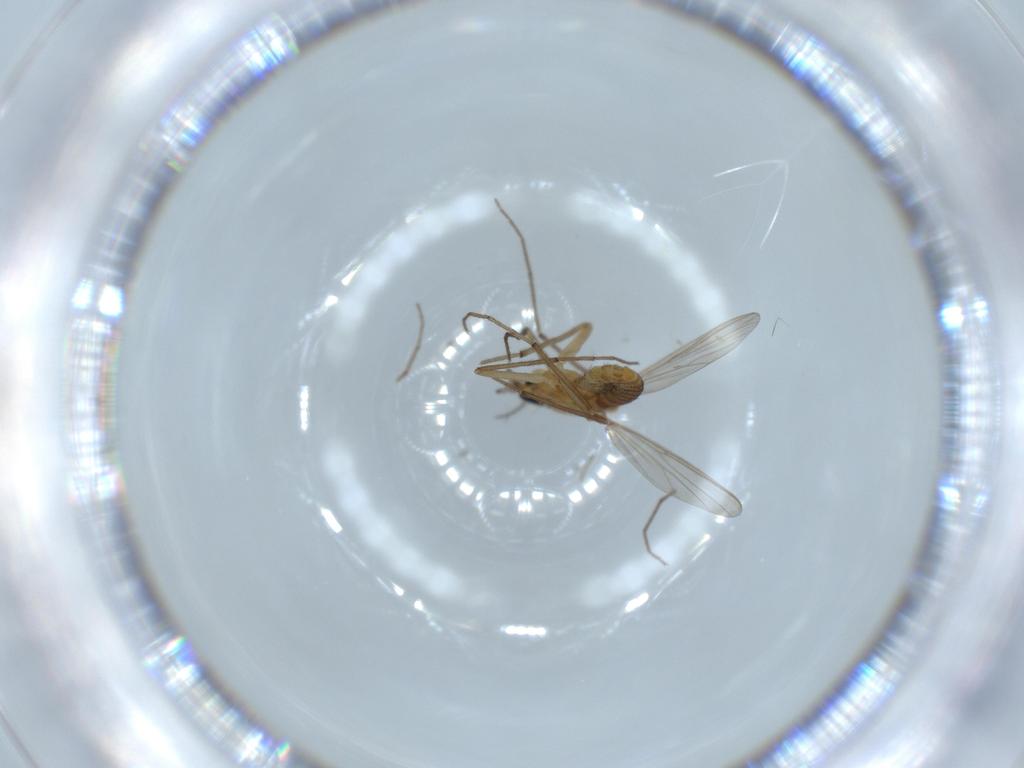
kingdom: Animalia
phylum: Arthropoda
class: Insecta
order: Diptera
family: Chironomidae
